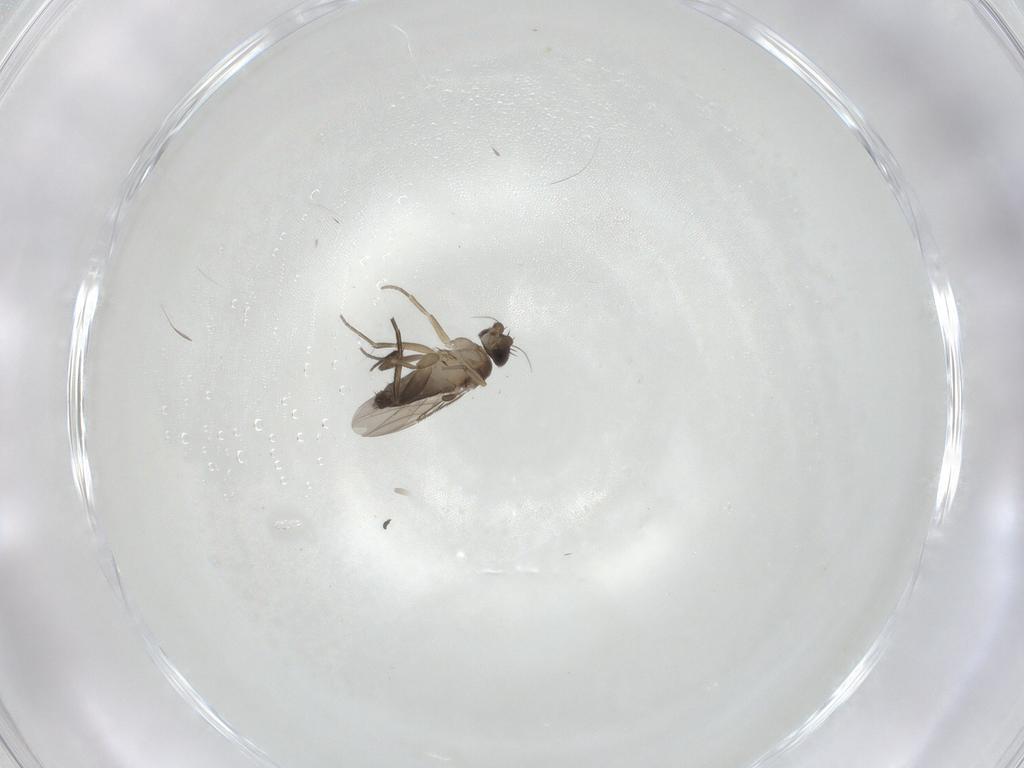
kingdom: Animalia
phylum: Arthropoda
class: Insecta
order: Diptera
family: Phoridae
